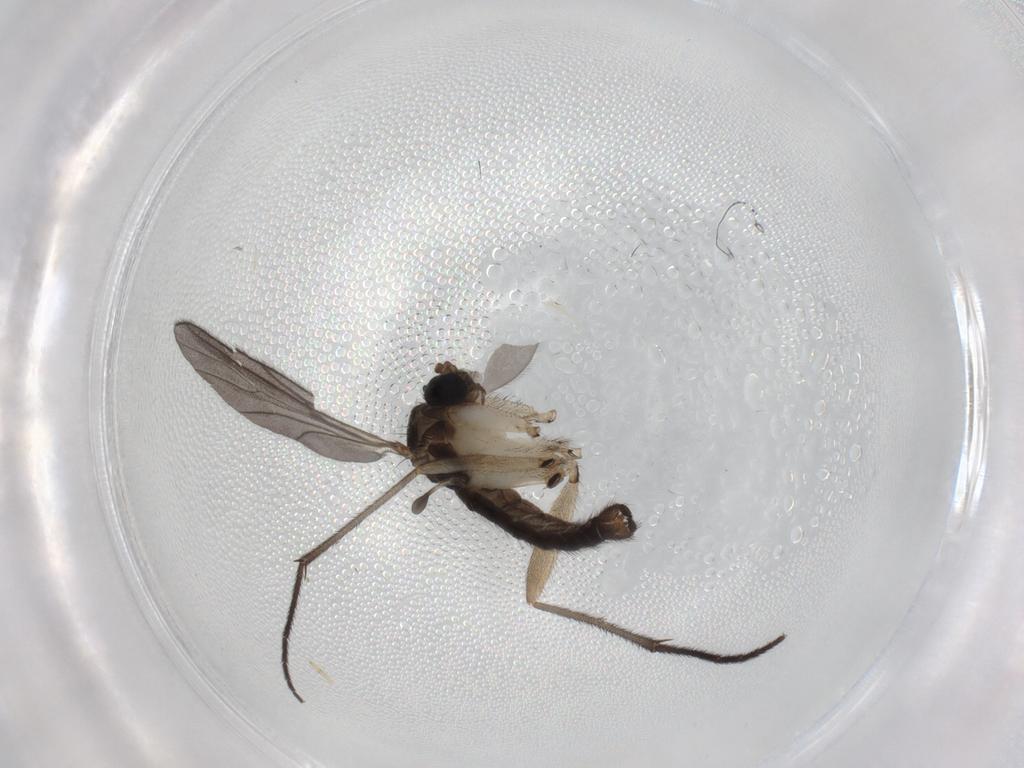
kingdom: Animalia
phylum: Arthropoda
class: Insecta
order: Diptera
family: Sciaridae
